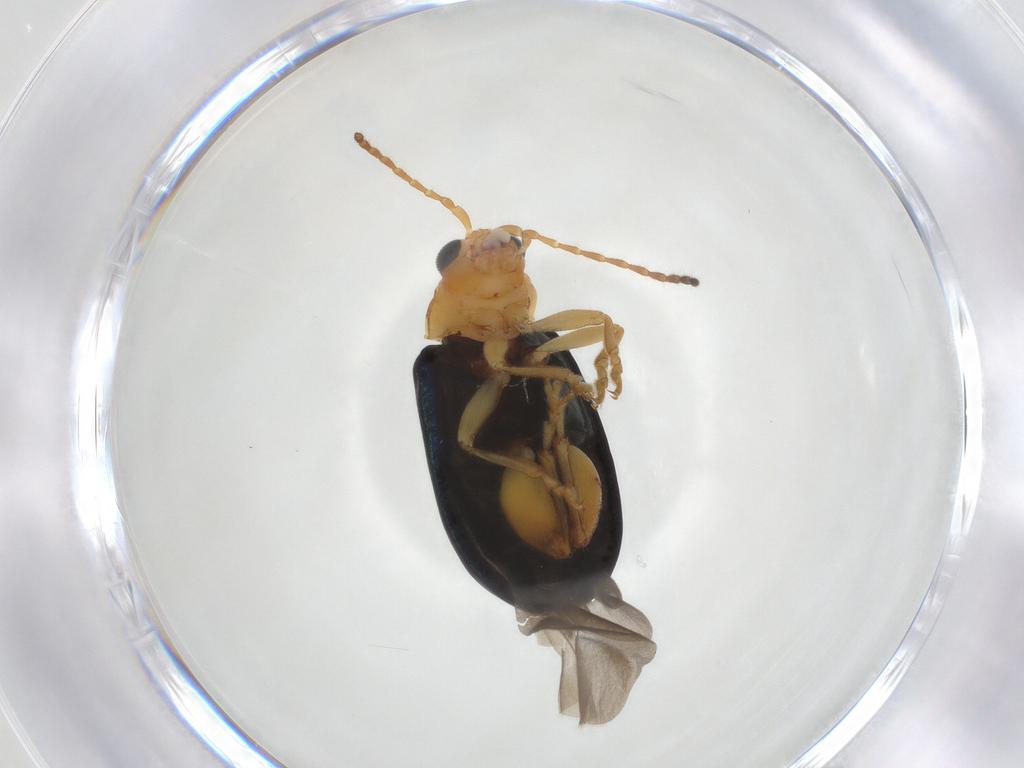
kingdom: Animalia
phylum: Arthropoda
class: Insecta
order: Coleoptera
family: Chrysomelidae
